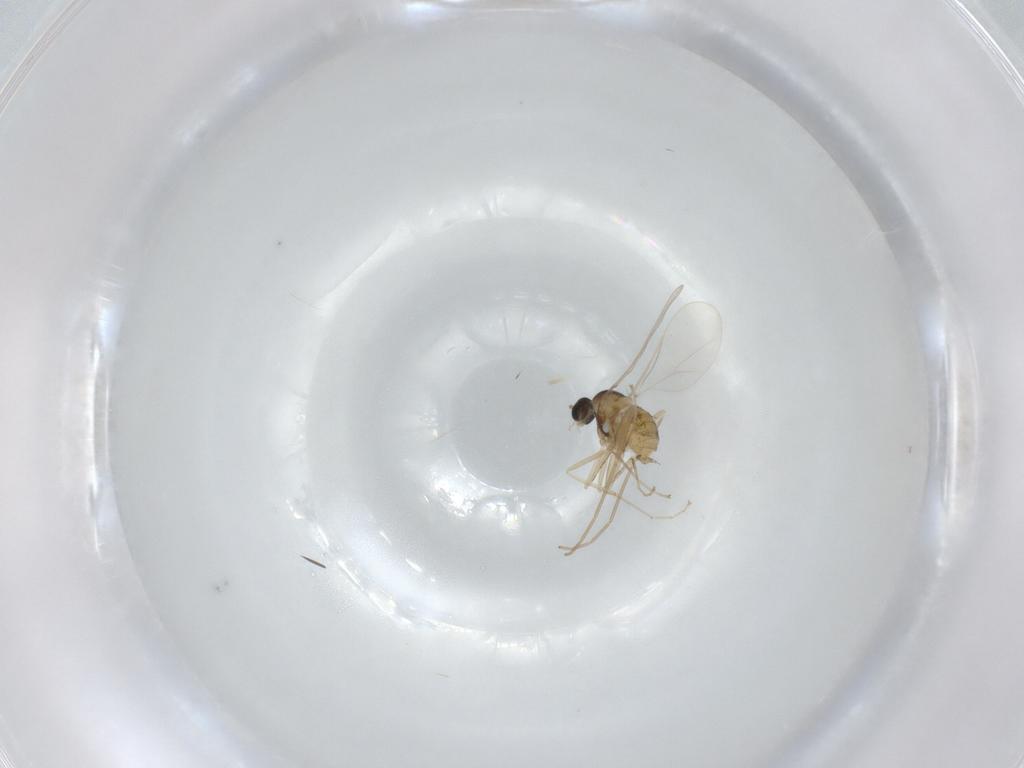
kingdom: Animalia
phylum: Arthropoda
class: Insecta
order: Diptera
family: Cecidomyiidae
